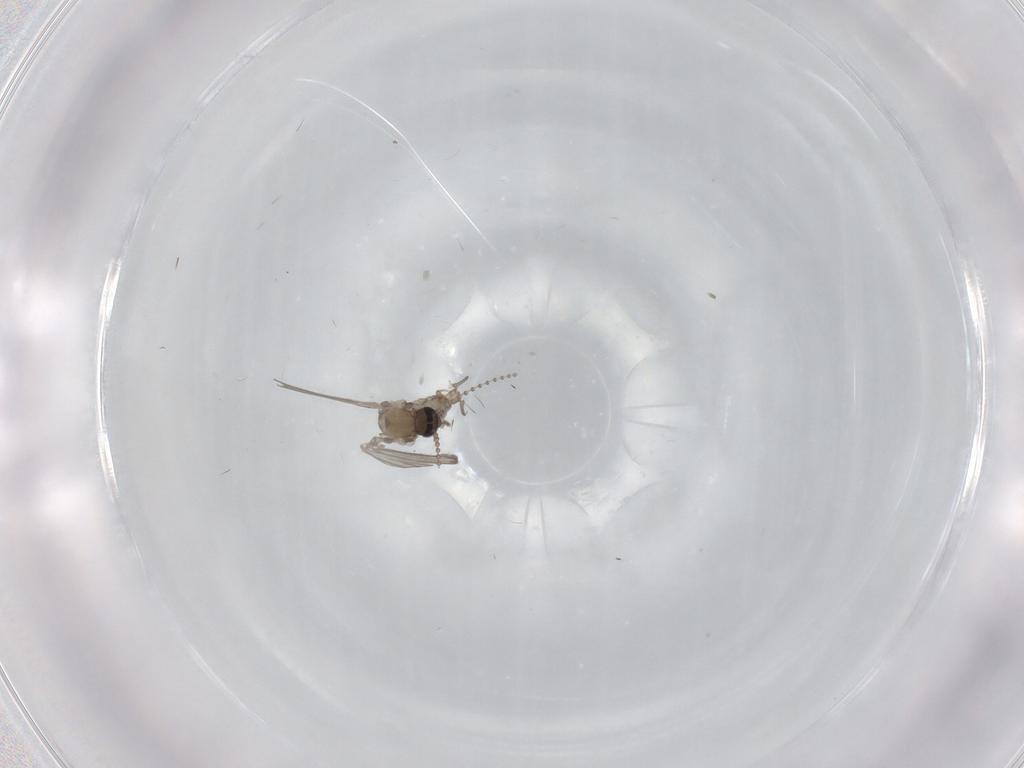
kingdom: Animalia
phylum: Arthropoda
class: Insecta
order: Diptera
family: Psychodidae
